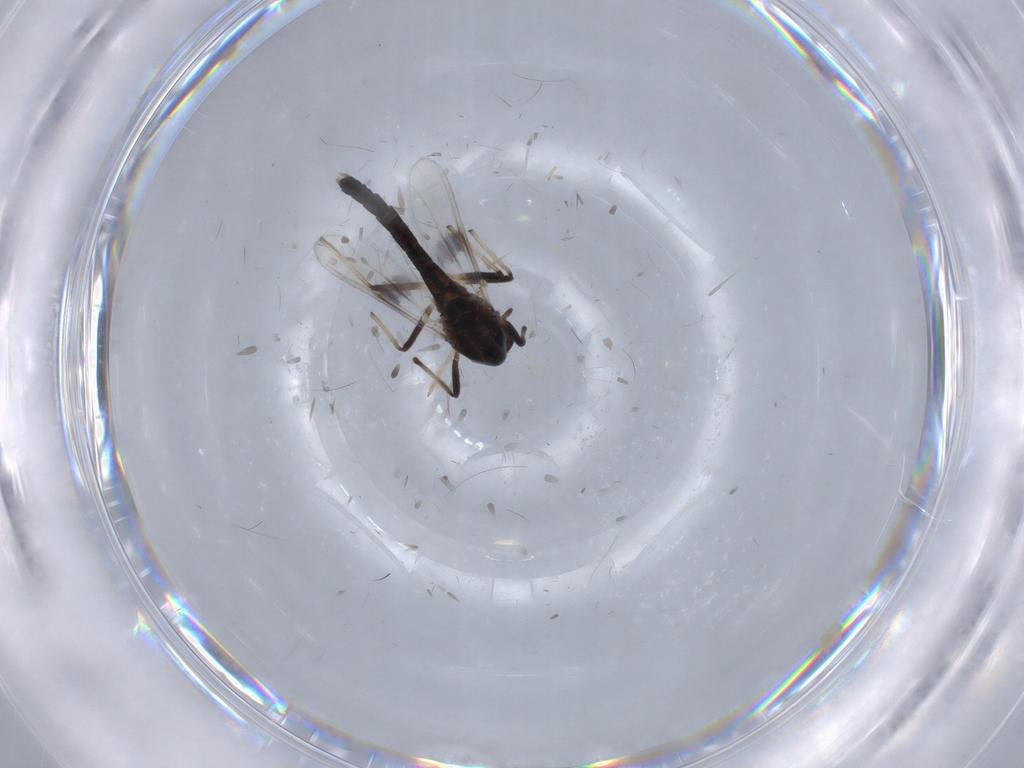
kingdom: Animalia
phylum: Arthropoda
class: Insecta
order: Diptera
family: Chironomidae
